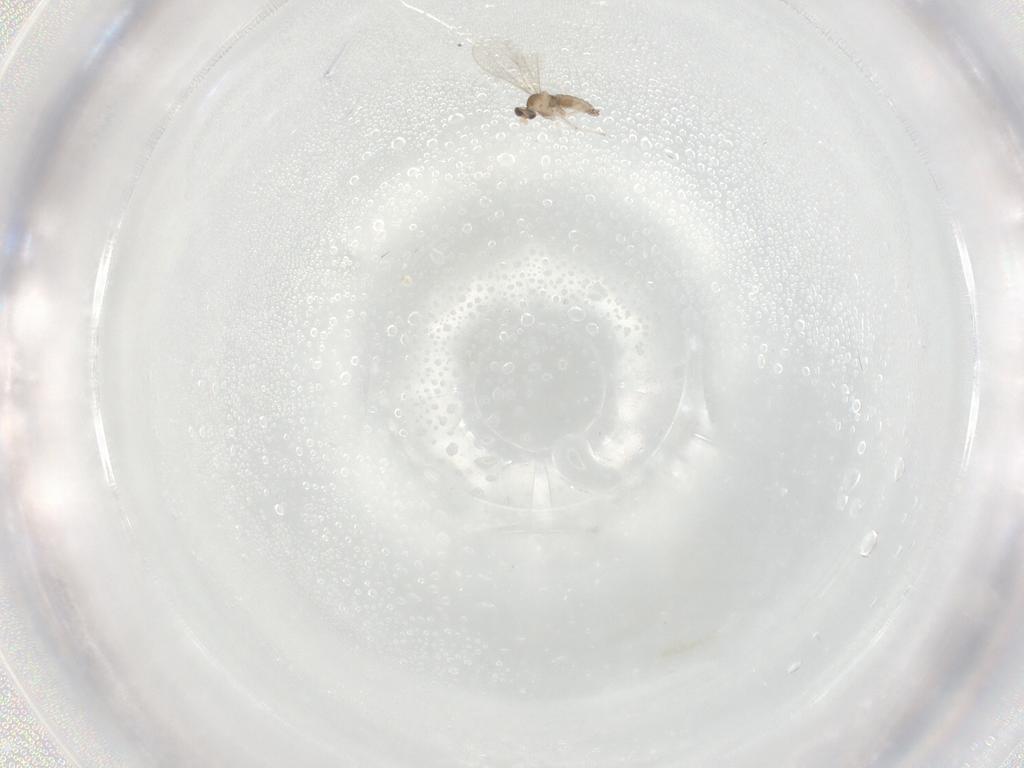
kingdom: Animalia
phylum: Arthropoda
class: Insecta
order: Diptera
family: Cecidomyiidae
